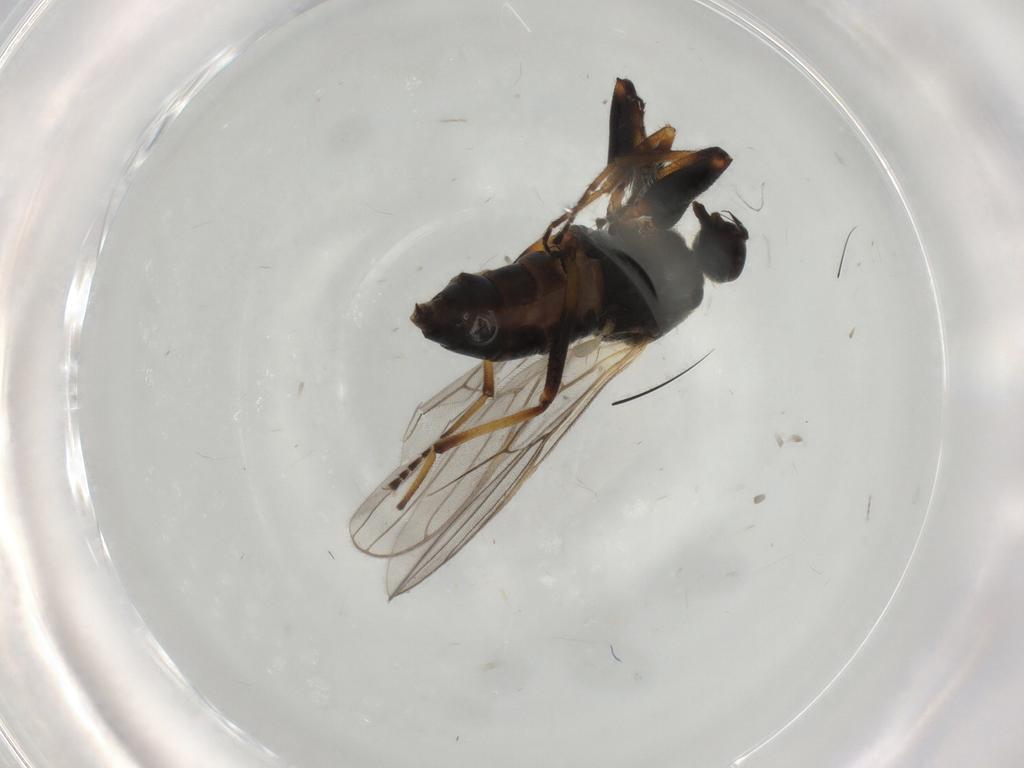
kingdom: Animalia
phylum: Arthropoda
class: Insecta
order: Diptera
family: Hybotidae
